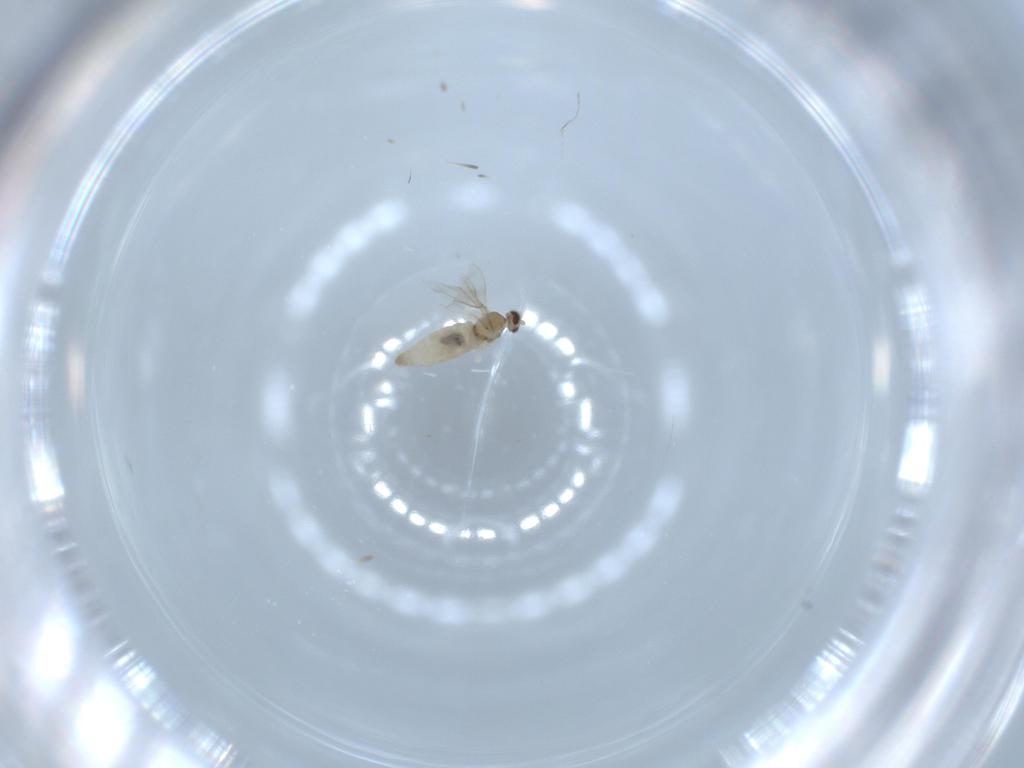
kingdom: Animalia
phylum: Arthropoda
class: Insecta
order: Diptera
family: Cecidomyiidae
